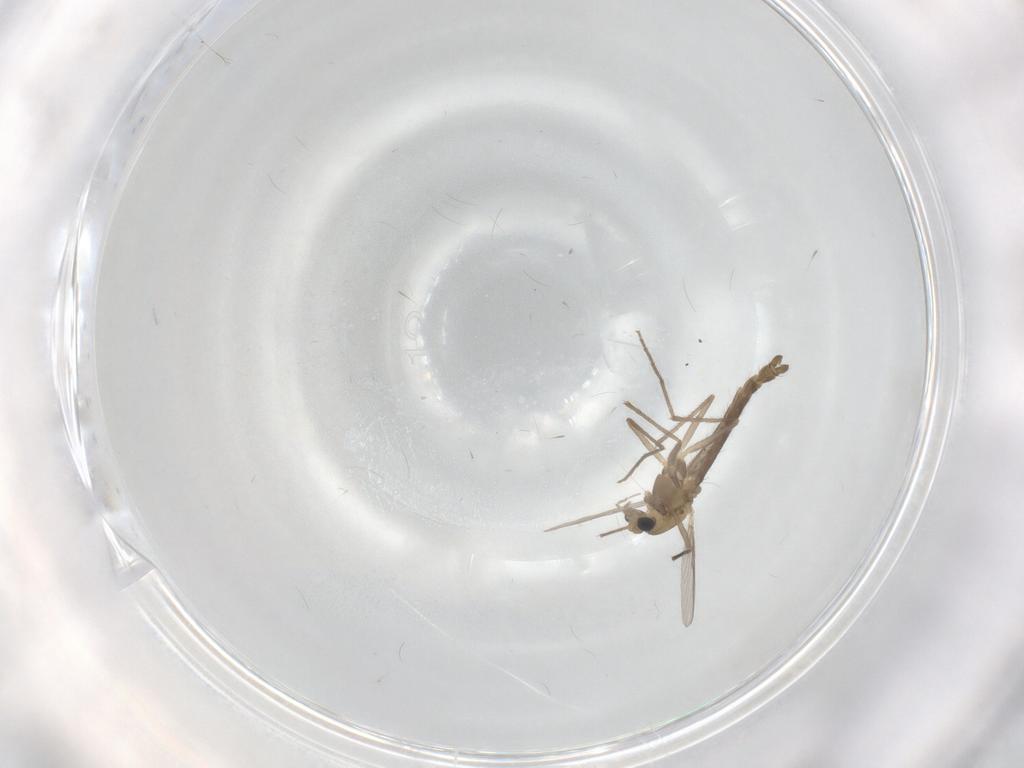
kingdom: Animalia
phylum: Arthropoda
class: Insecta
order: Diptera
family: Chironomidae
